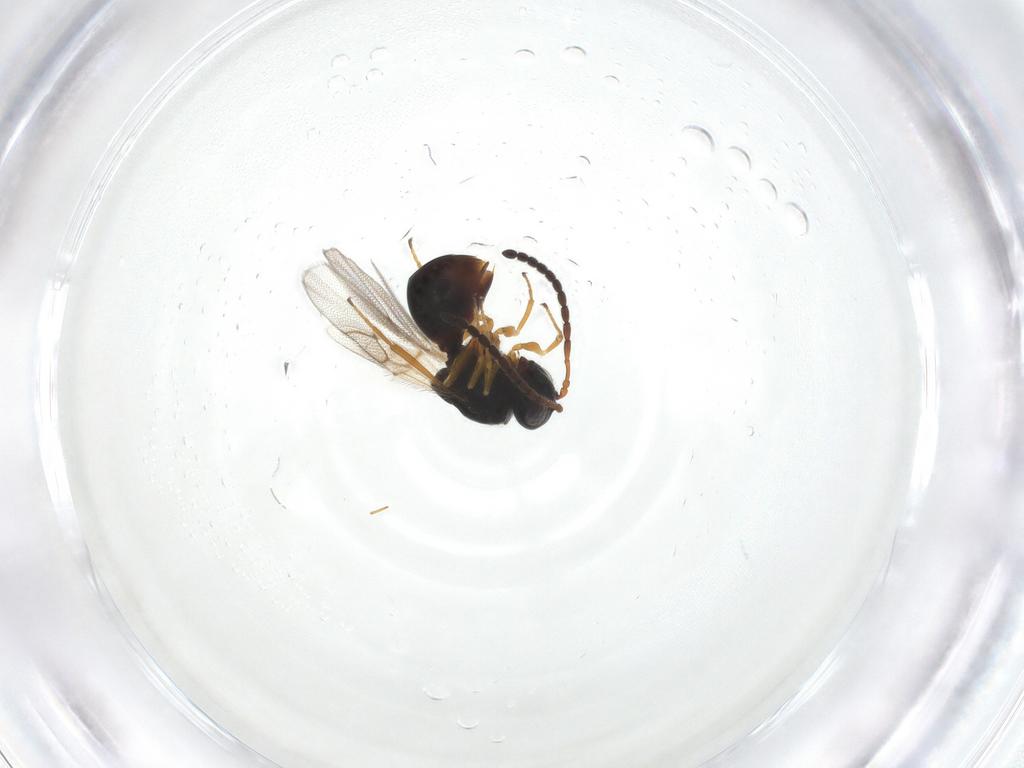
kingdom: Animalia
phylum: Arthropoda
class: Insecta
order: Hymenoptera
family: Figitidae
